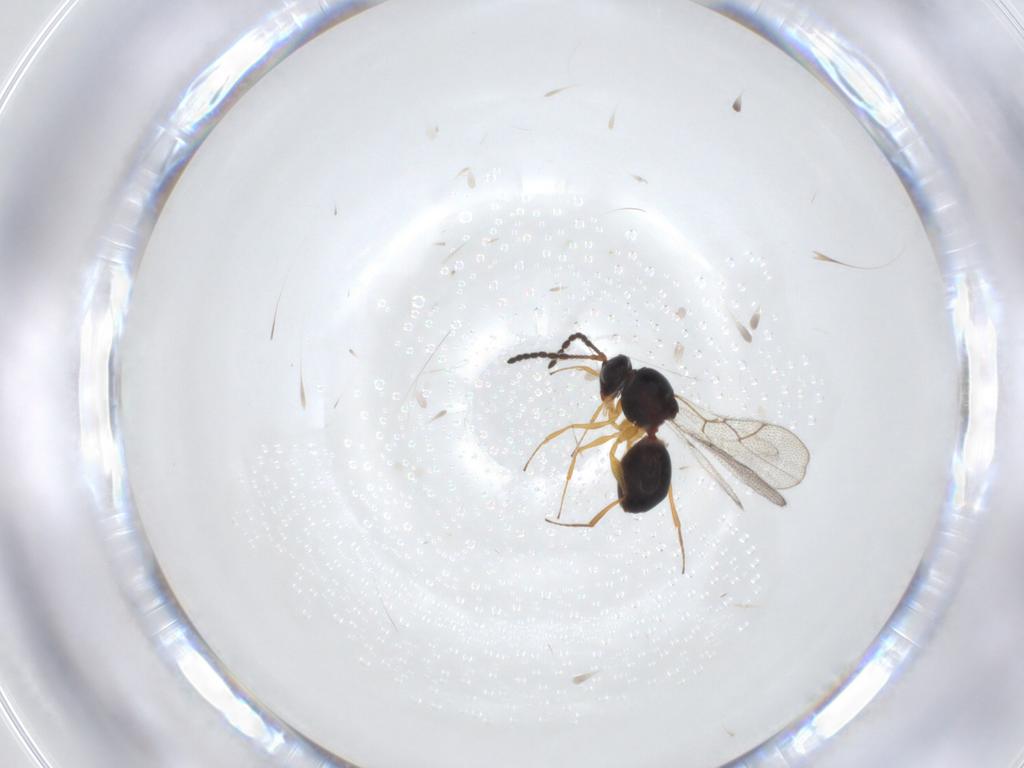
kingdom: Animalia
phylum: Arthropoda
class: Insecta
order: Hymenoptera
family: Figitidae
